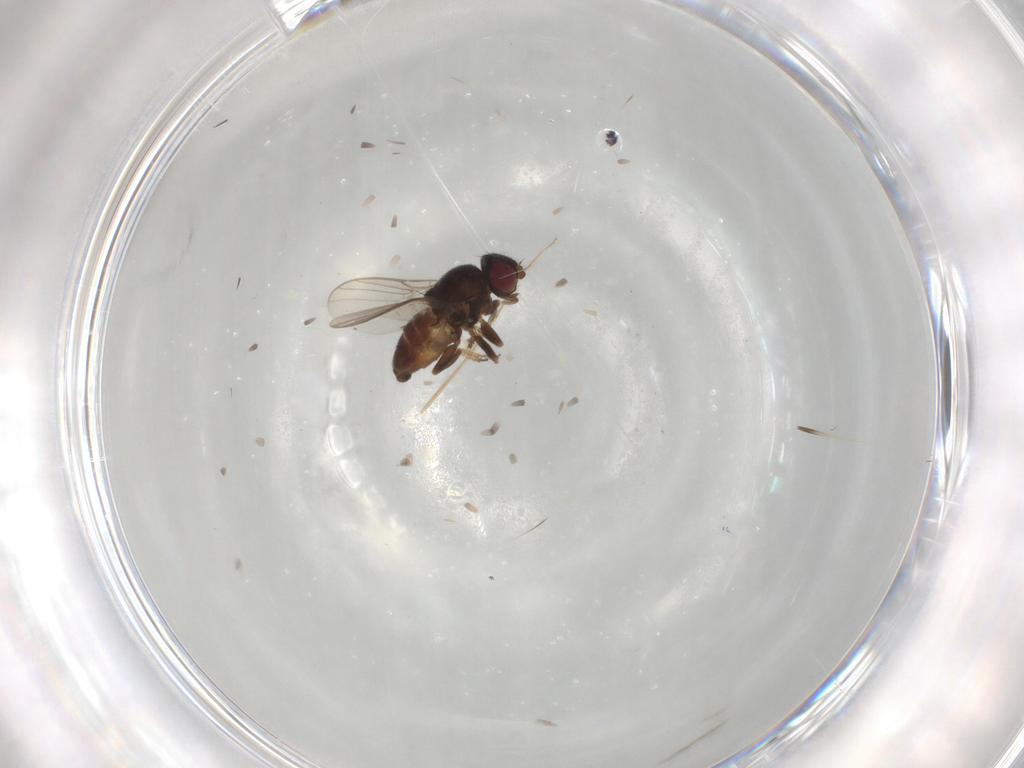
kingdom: Animalia
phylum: Arthropoda
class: Insecta
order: Diptera
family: Chloropidae
